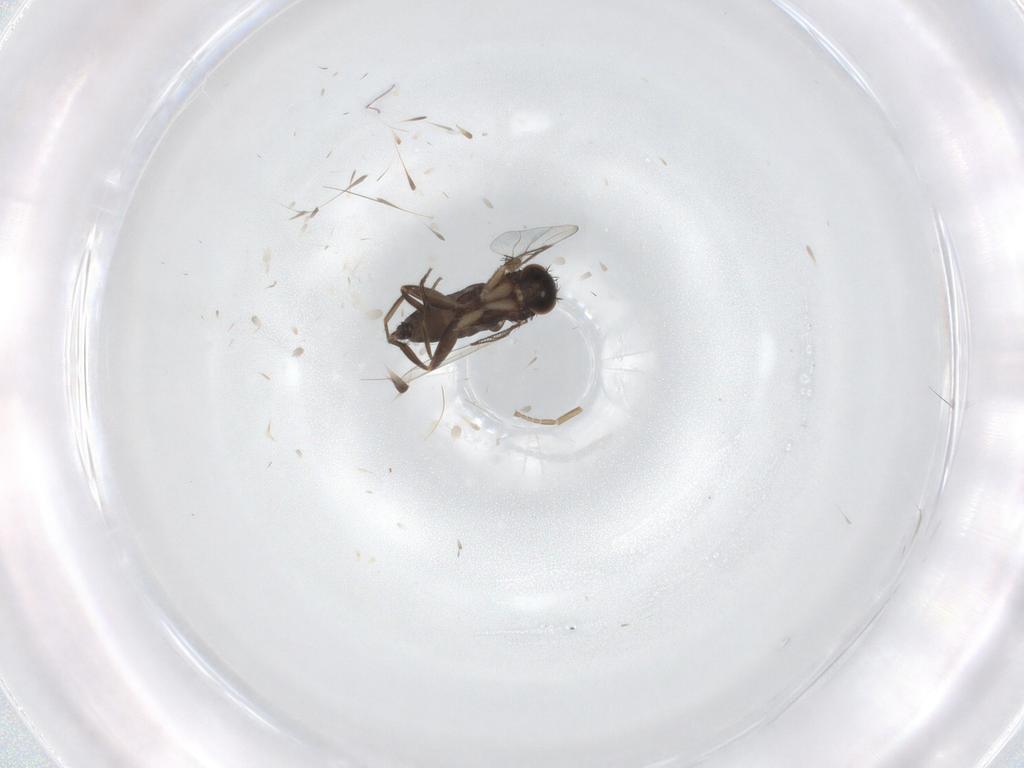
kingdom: Animalia
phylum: Arthropoda
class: Insecta
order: Diptera
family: Phoridae
